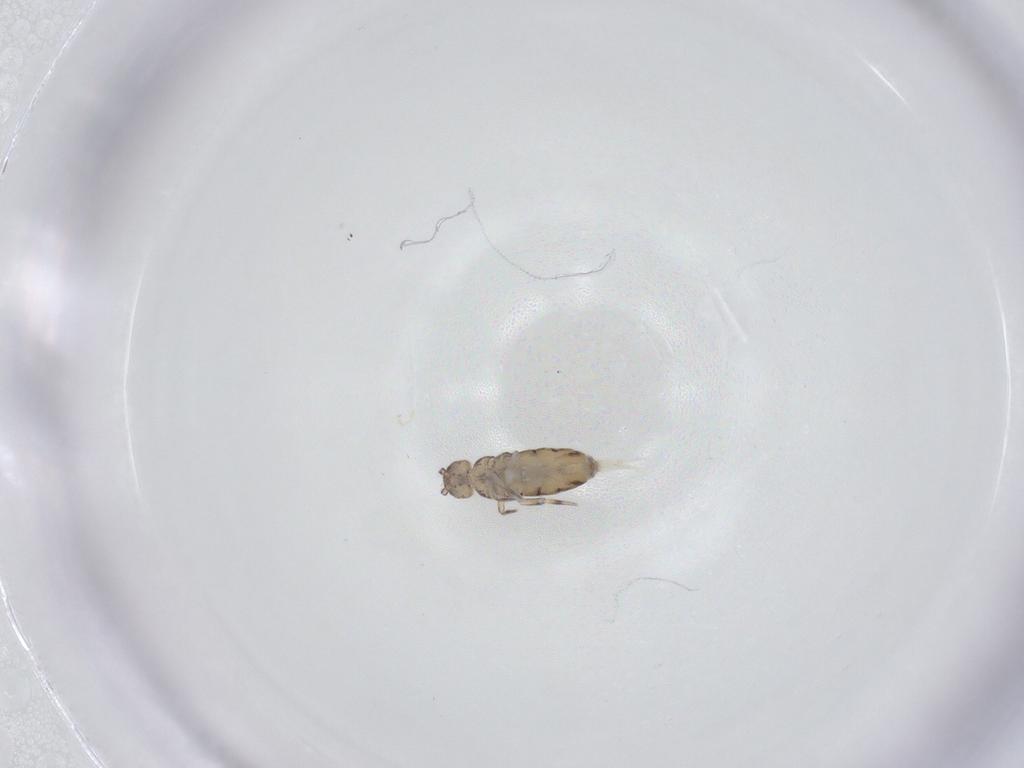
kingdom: Animalia
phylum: Arthropoda
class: Collembola
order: Entomobryomorpha
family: Entomobryidae
